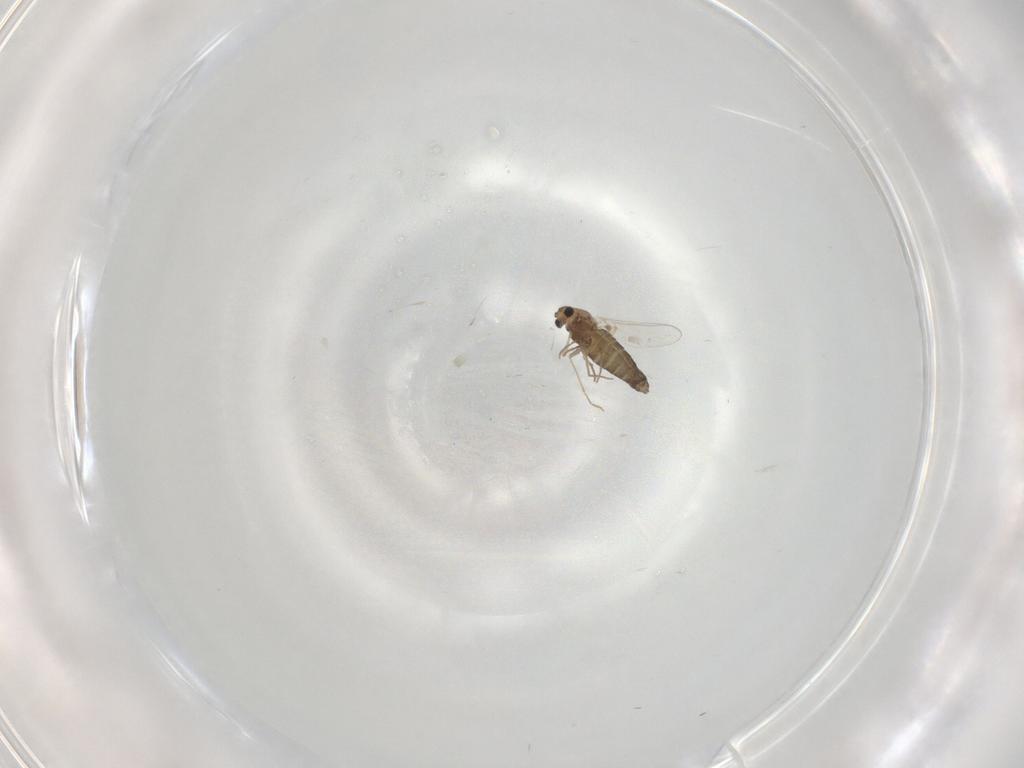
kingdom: Animalia
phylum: Arthropoda
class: Insecta
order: Diptera
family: Chironomidae
